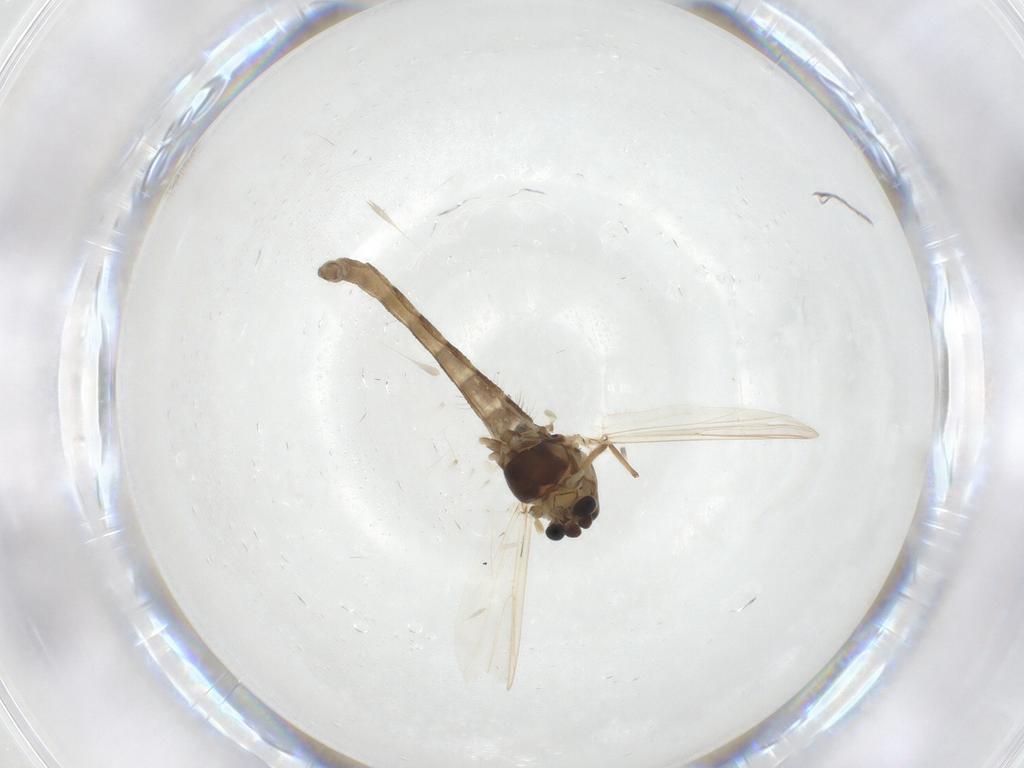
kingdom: Animalia
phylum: Arthropoda
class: Insecta
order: Diptera
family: Chironomidae
